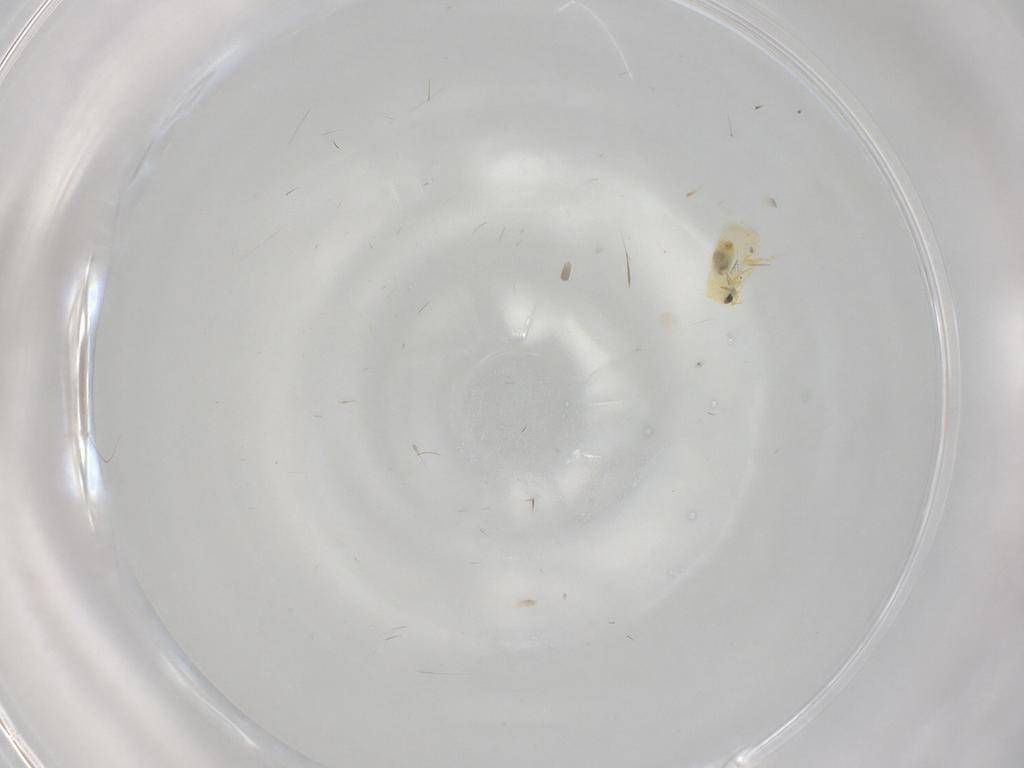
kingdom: Animalia
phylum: Arthropoda
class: Insecta
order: Hemiptera
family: Aleyrodidae
